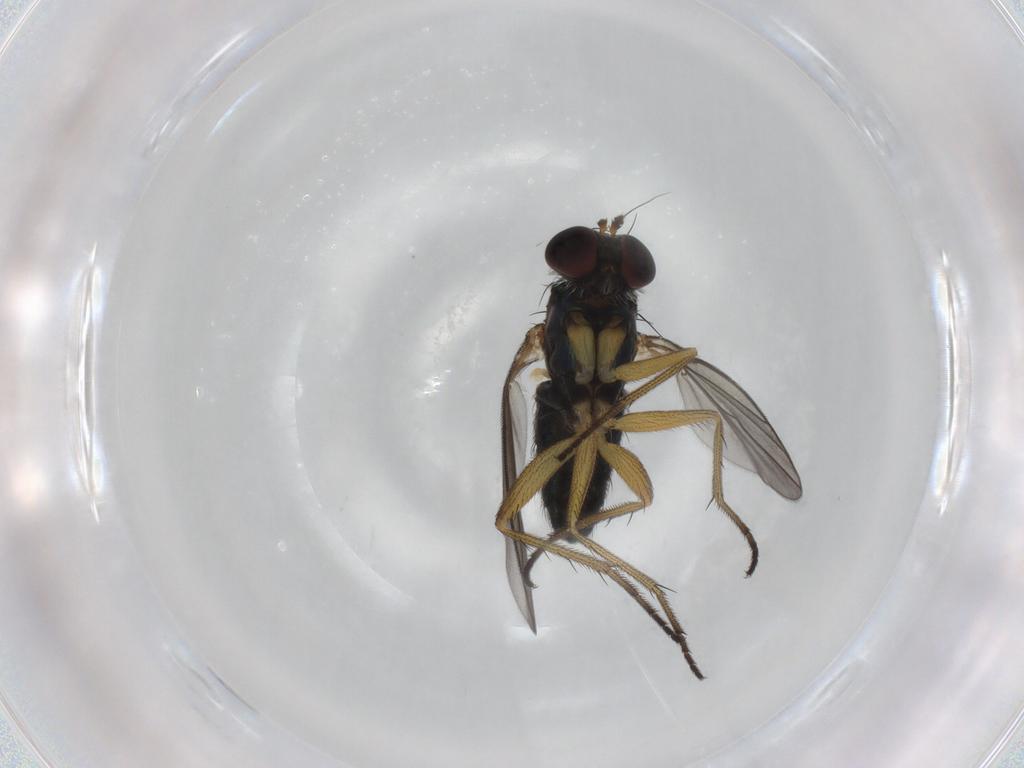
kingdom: Animalia
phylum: Arthropoda
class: Insecta
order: Diptera
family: Dolichopodidae
